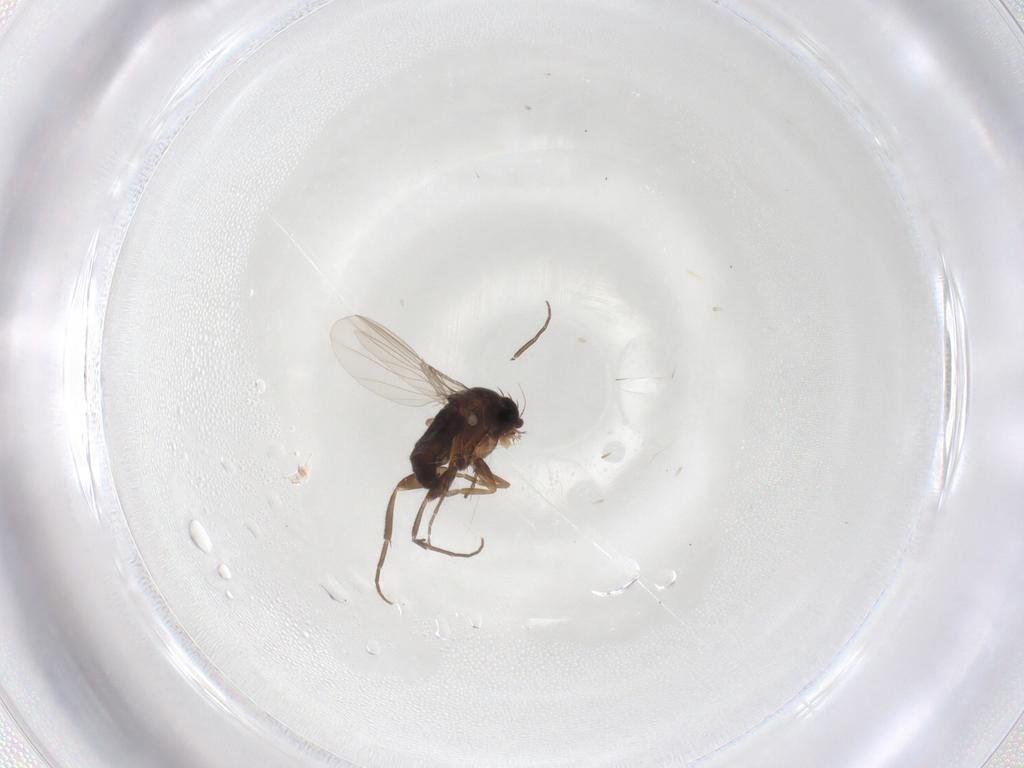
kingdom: Animalia
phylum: Arthropoda
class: Insecta
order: Diptera
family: Phoridae
